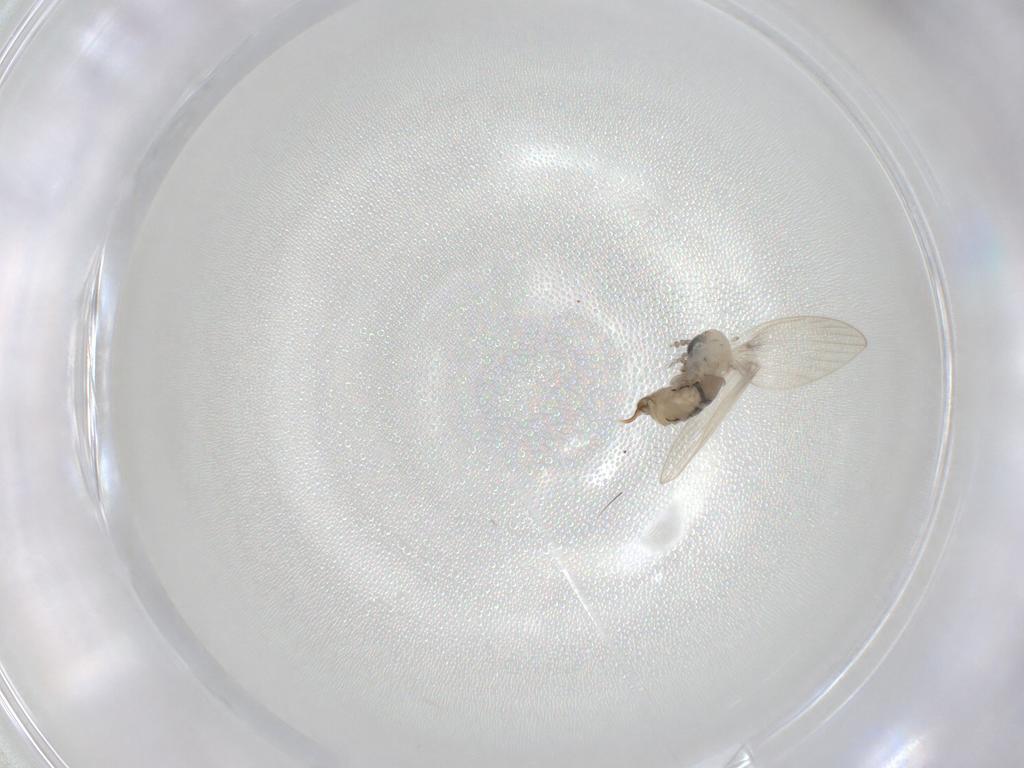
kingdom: Animalia
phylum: Arthropoda
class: Insecta
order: Diptera
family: Psychodidae
